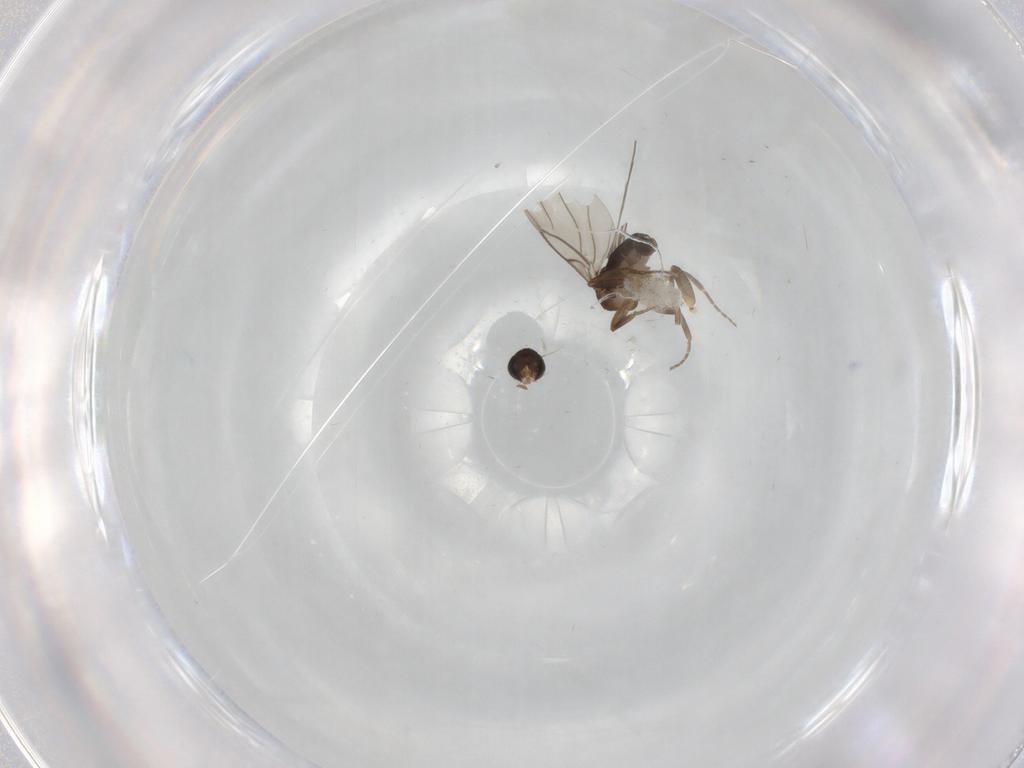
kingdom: Animalia
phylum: Arthropoda
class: Insecta
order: Diptera
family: Phoridae
